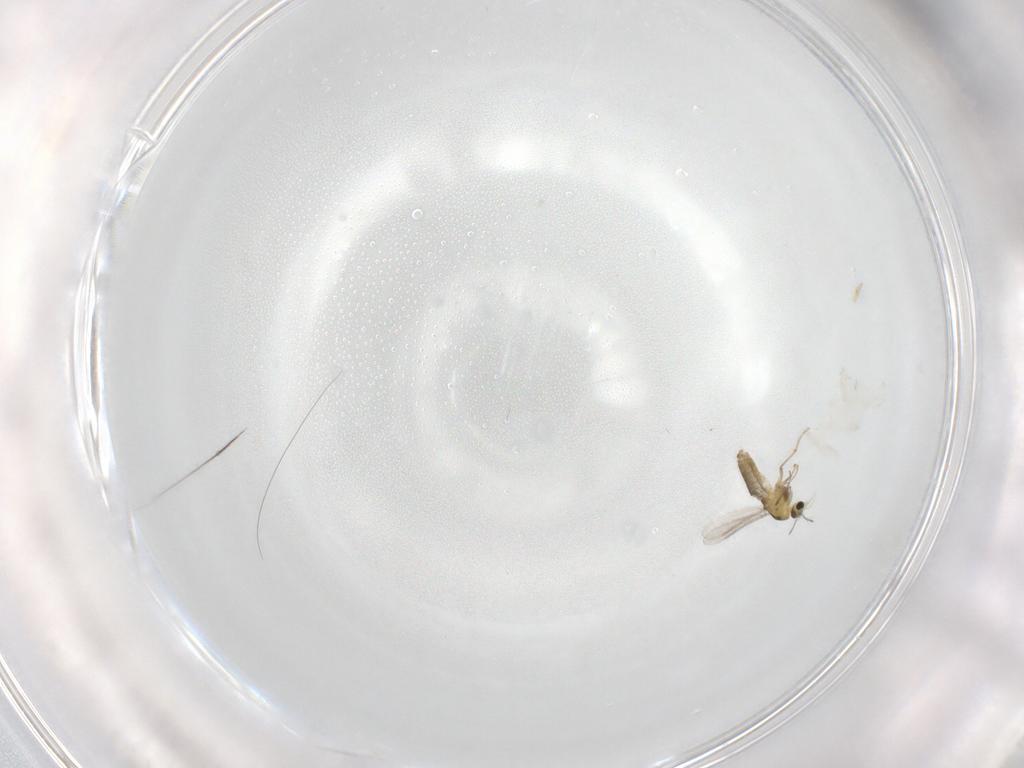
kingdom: Animalia
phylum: Arthropoda
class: Insecta
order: Diptera
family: Chironomidae
